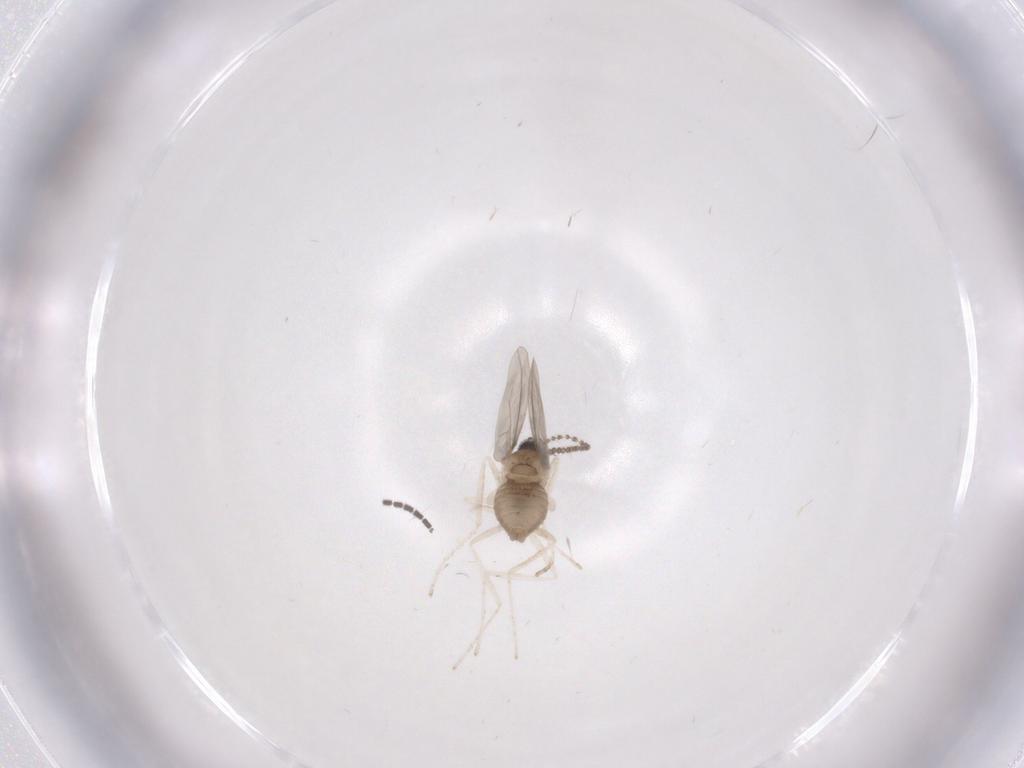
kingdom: Animalia
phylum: Arthropoda
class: Insecta
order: Diptera
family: Cecidomyiidae
